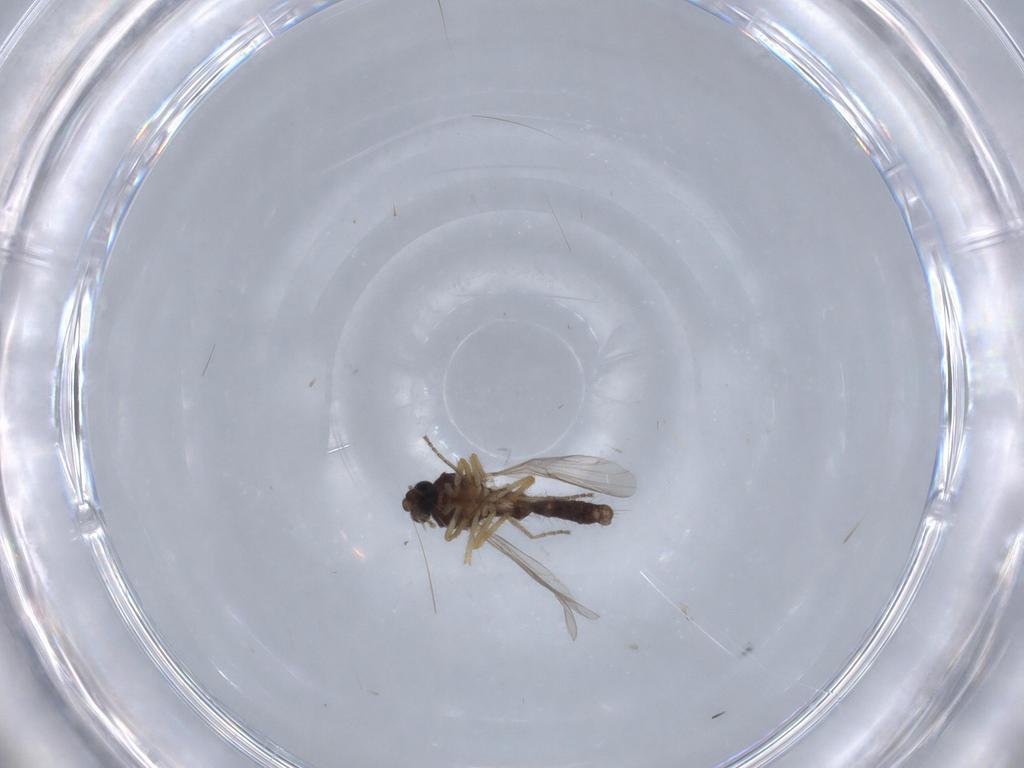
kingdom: Animalia
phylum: Arthropoda
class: Insecta
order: Diptera
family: Ceratopogonidae
